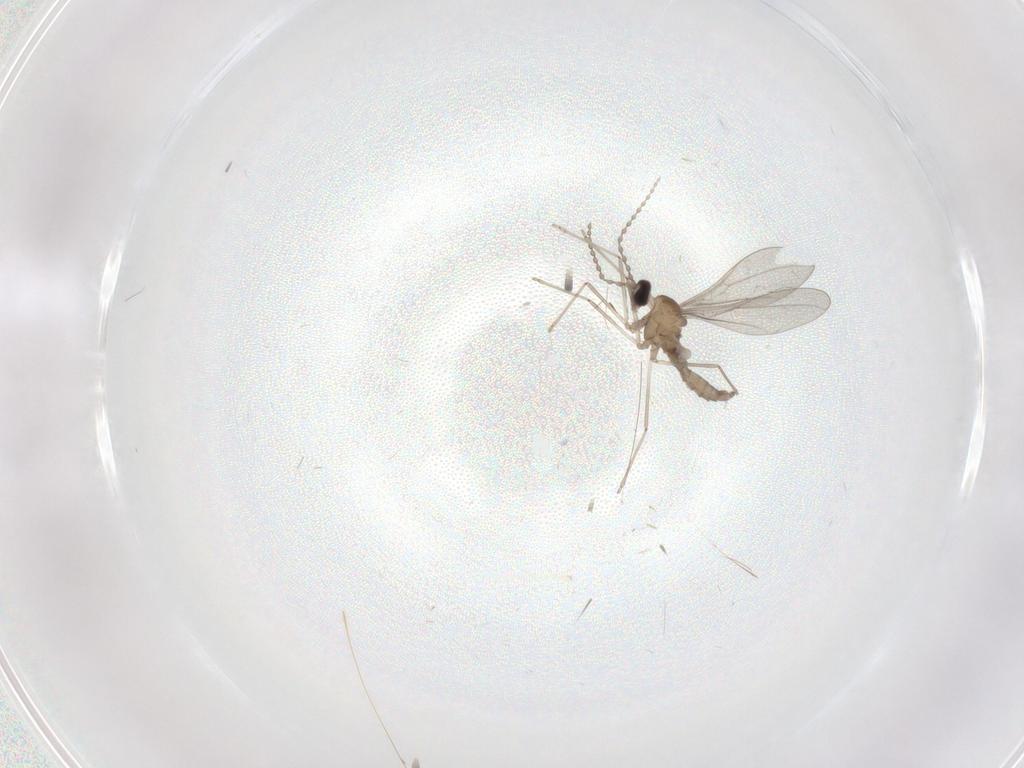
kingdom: Animalia
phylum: Arthropoda
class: Insecta
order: Diptera
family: Cecidomyiidae
